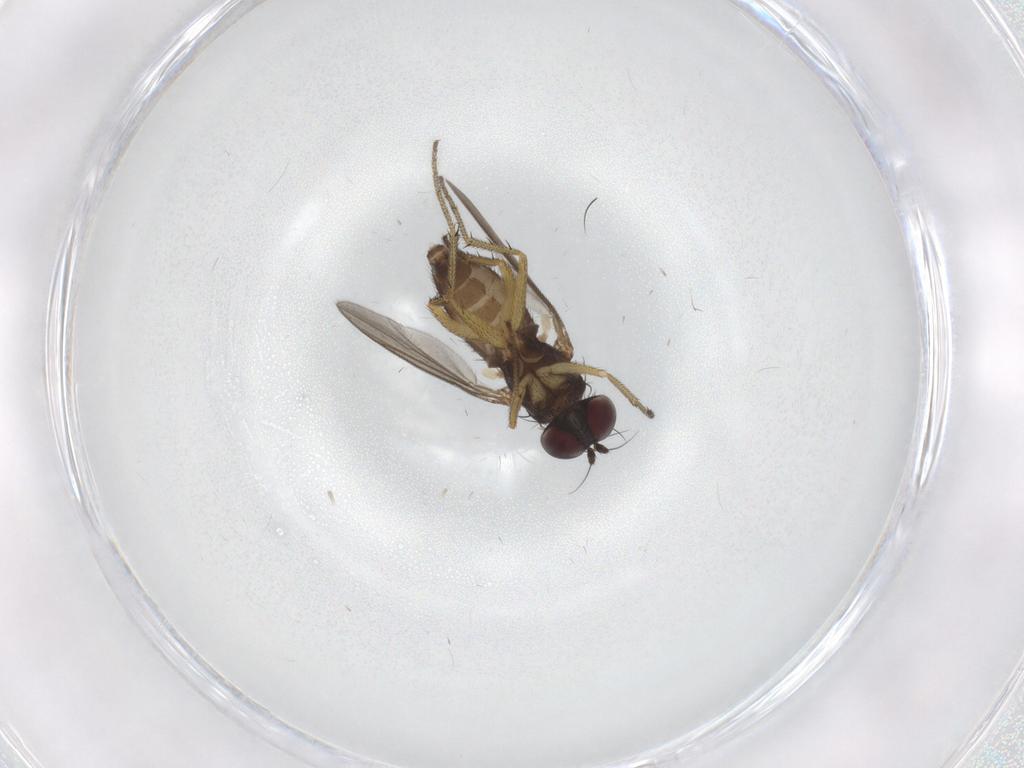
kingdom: Animalia
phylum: Arthropoda
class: Insecta
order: Diptera
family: Dolichopodidae
